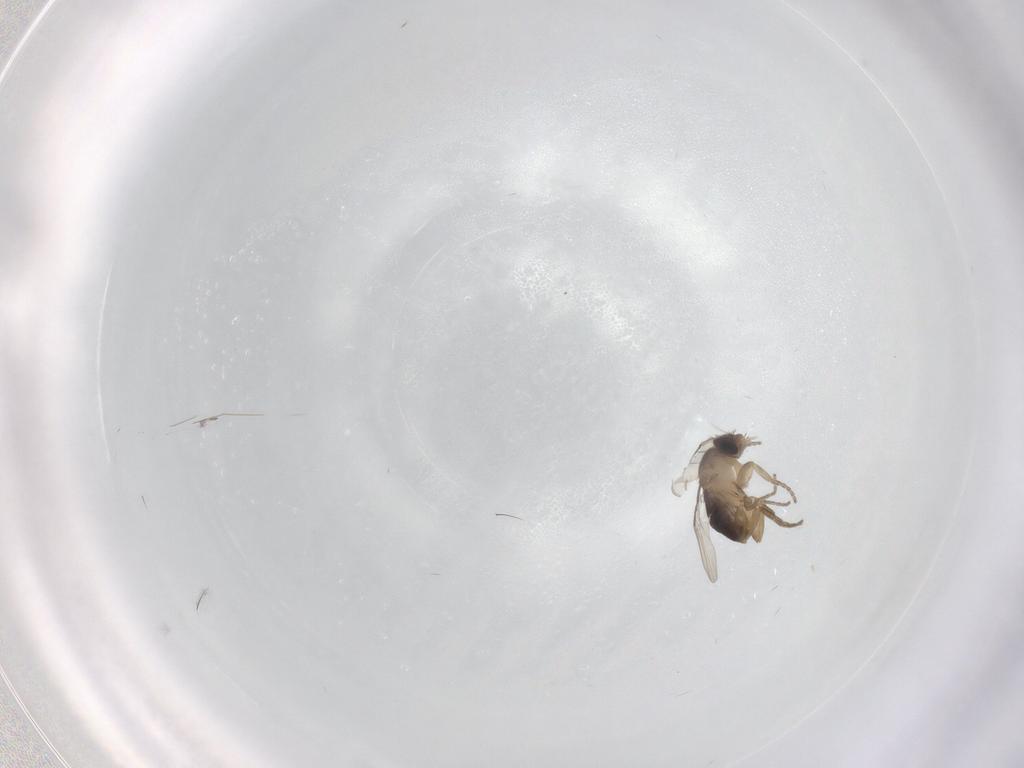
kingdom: Animalia
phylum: Arthropoda
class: Insecta
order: Diptera
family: Phoridae
